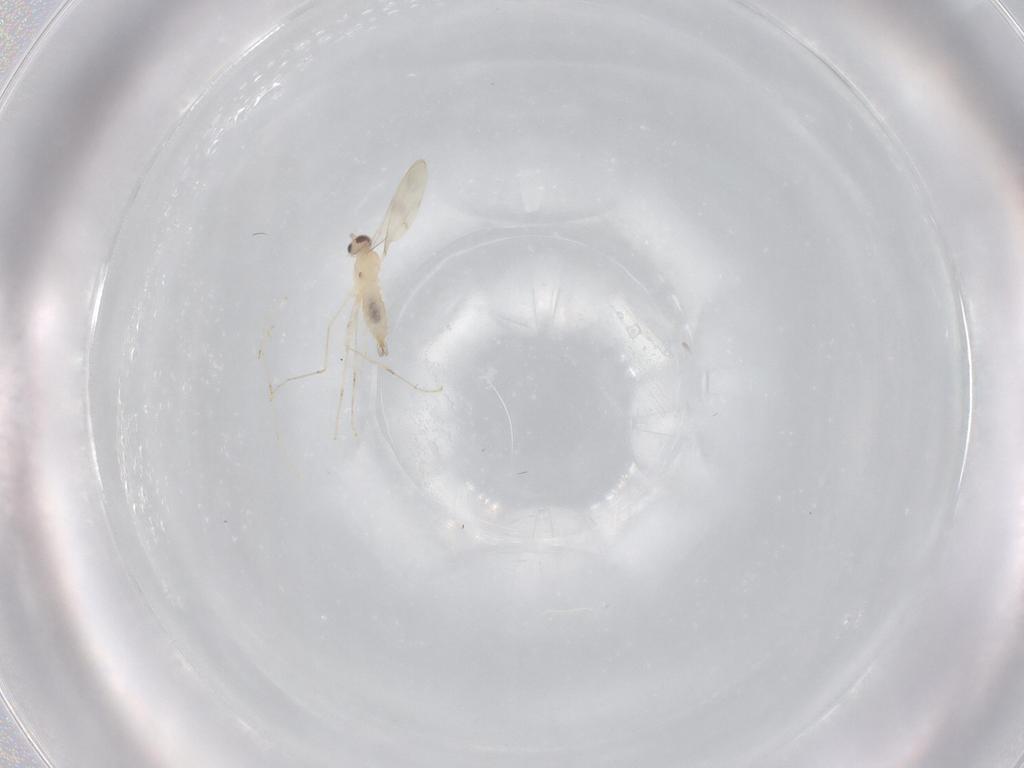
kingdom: Animalia
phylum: Arthropoda
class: Insecta
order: Diptera
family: Cecidomyiidae
